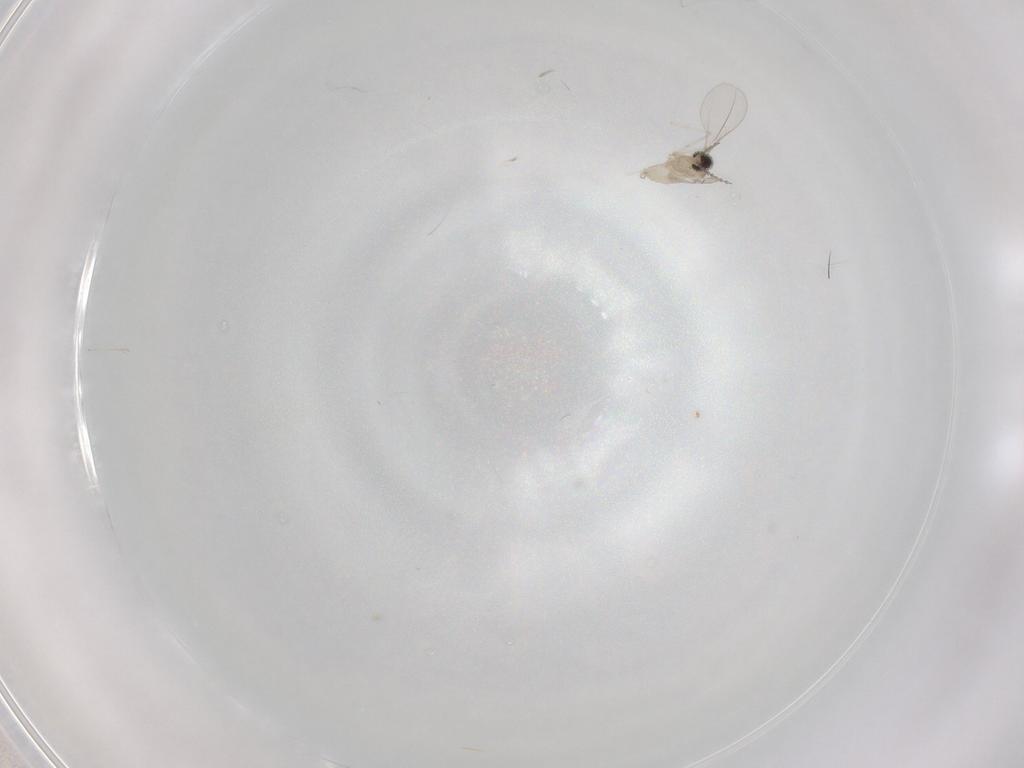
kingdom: Animalia
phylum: Arthropoda
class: Insecta
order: Diptera
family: Cecidomyiidae
